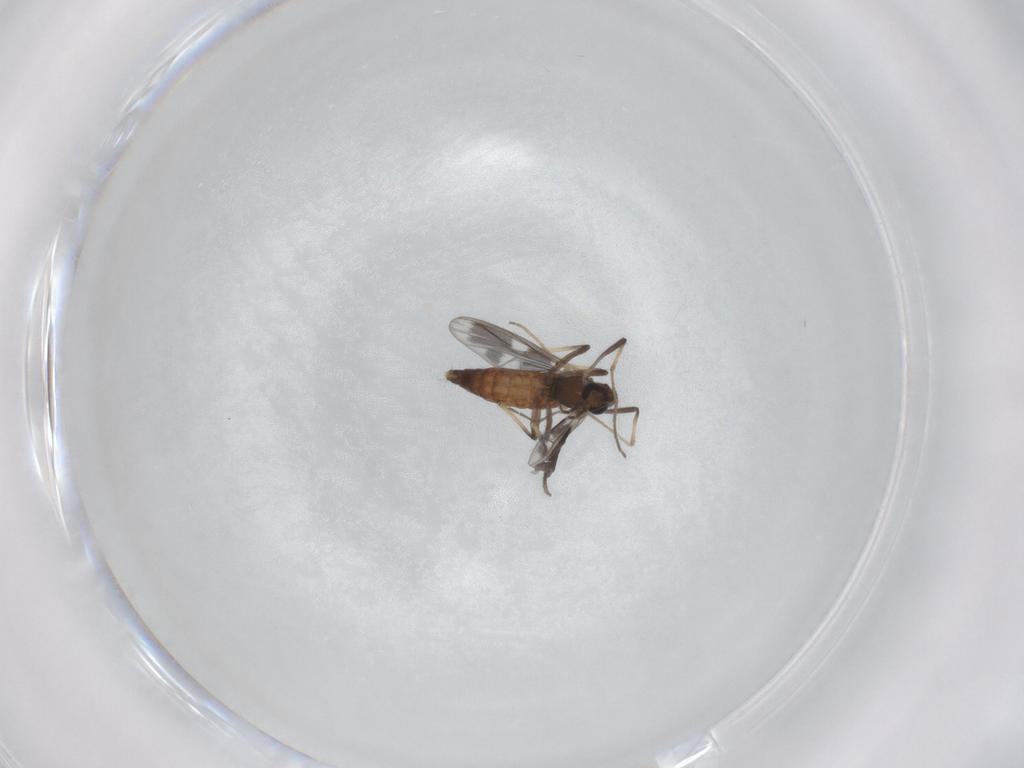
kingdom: Animalia
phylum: Arthropoda
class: Insecta
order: Diptera
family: Chironomidae
